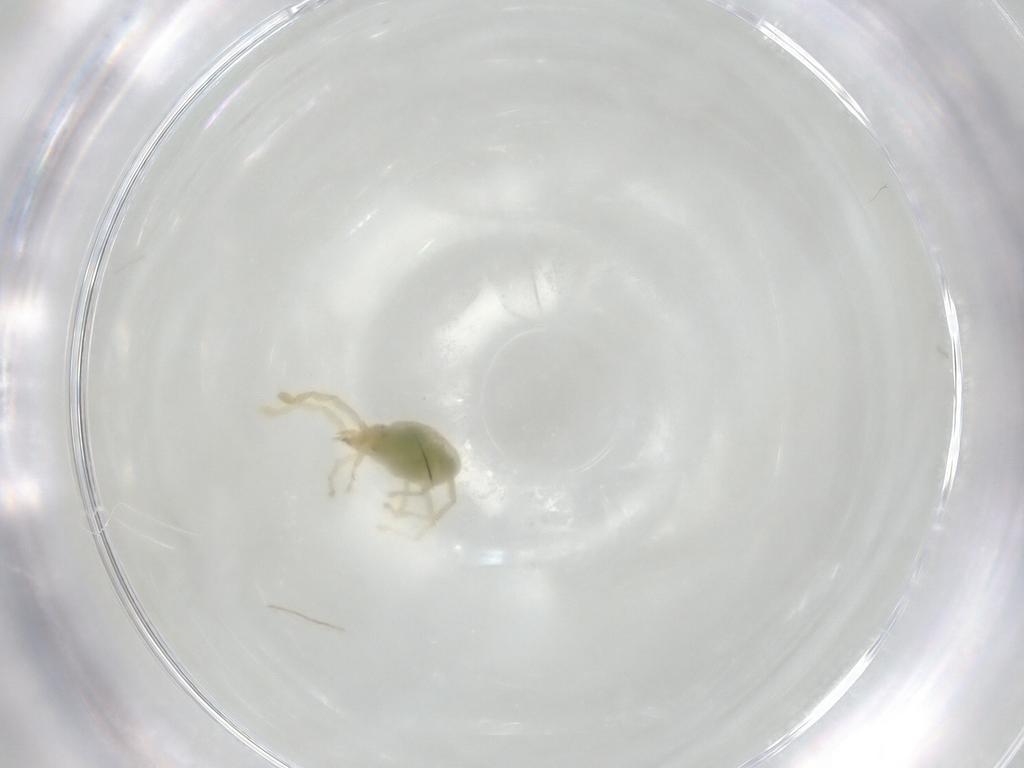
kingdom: Animalia
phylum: Arthropoda
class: Arachnida
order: Trombidiformes
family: Erythraeidae
